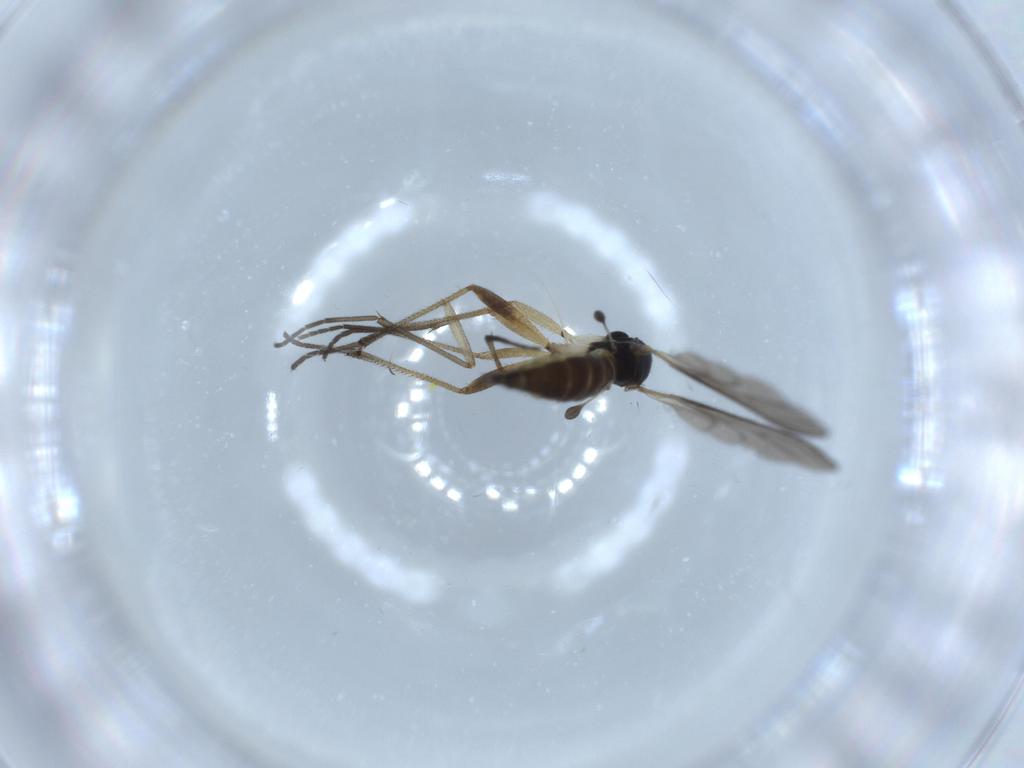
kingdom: Animalia
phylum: Arthropoda
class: Insecta
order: Diptera
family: Sciaridae
